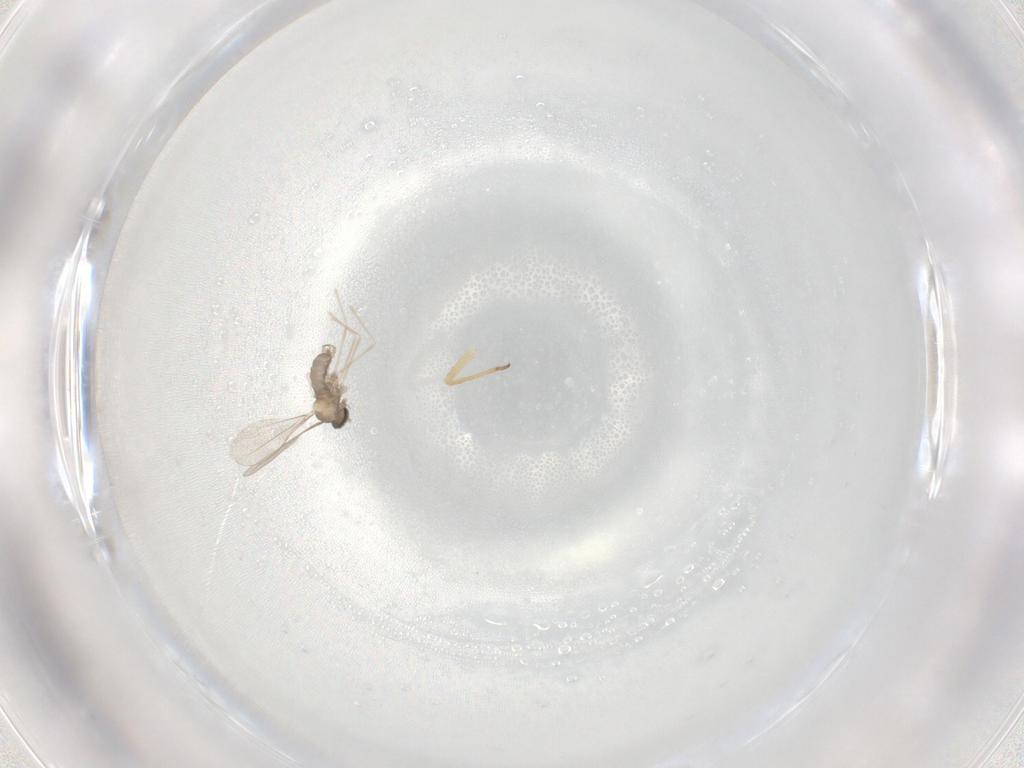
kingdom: Animalia
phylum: Arthropoda
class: Insecta
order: Diptera
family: Cecidomyiidae
